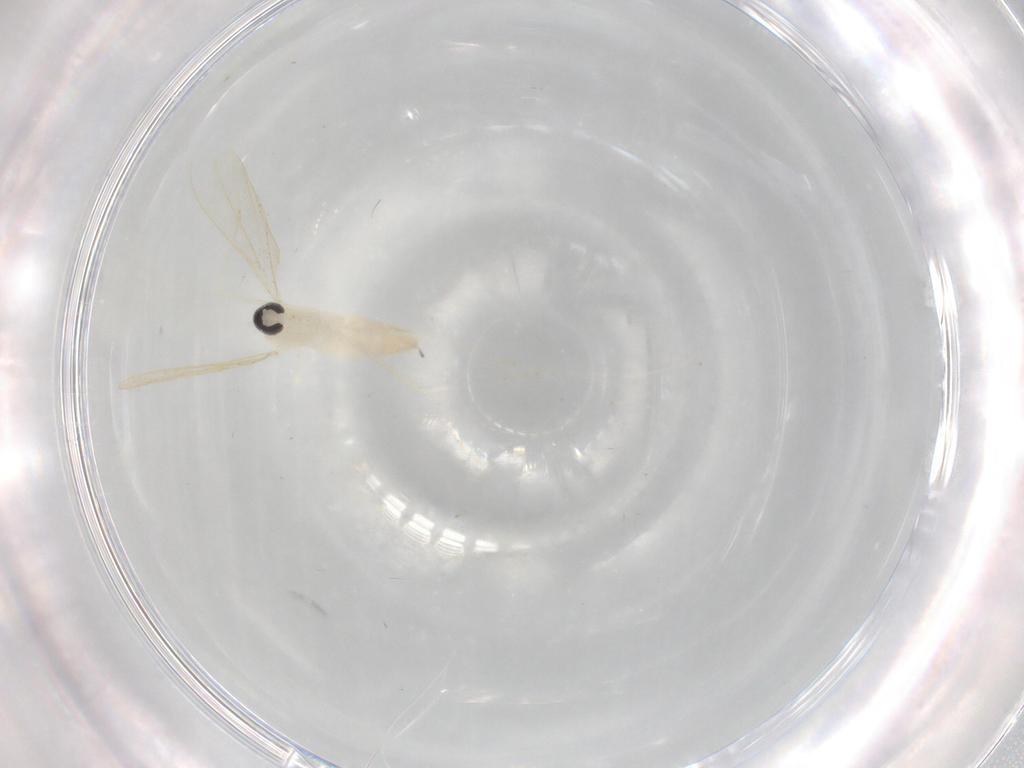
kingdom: Animalia
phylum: Arthropoda
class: Insecta
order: Diptera
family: Cecidomyiidae
